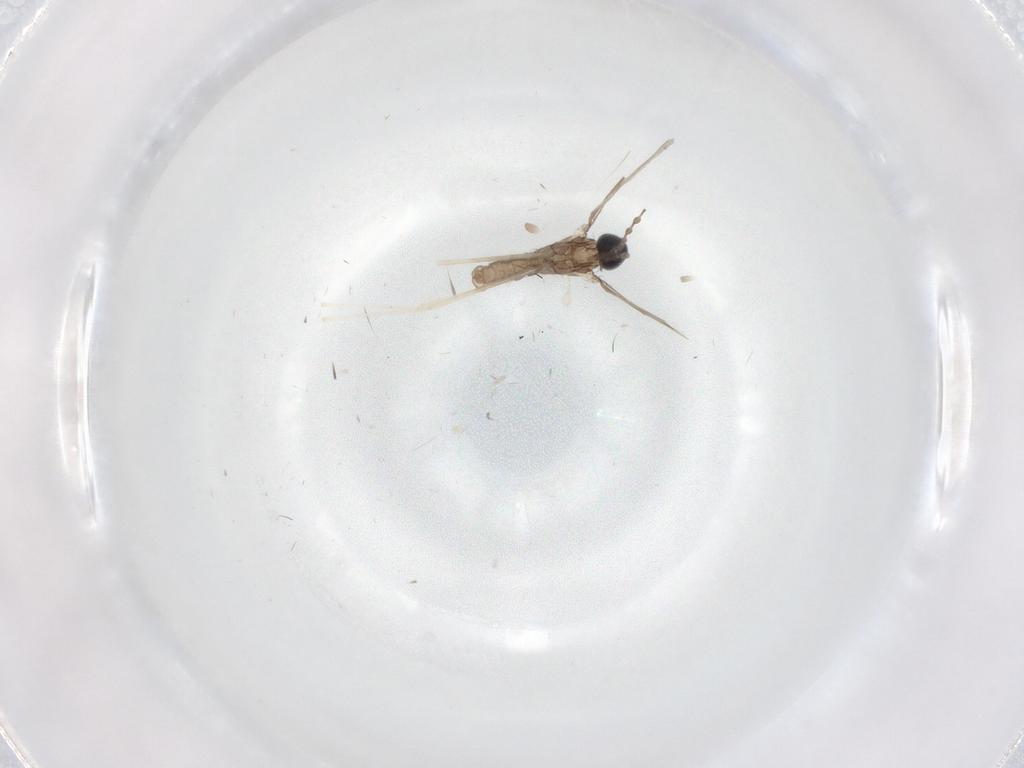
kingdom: Animalia
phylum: Arthropoda
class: Insecta
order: Diptera
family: Cecidomyiidae
